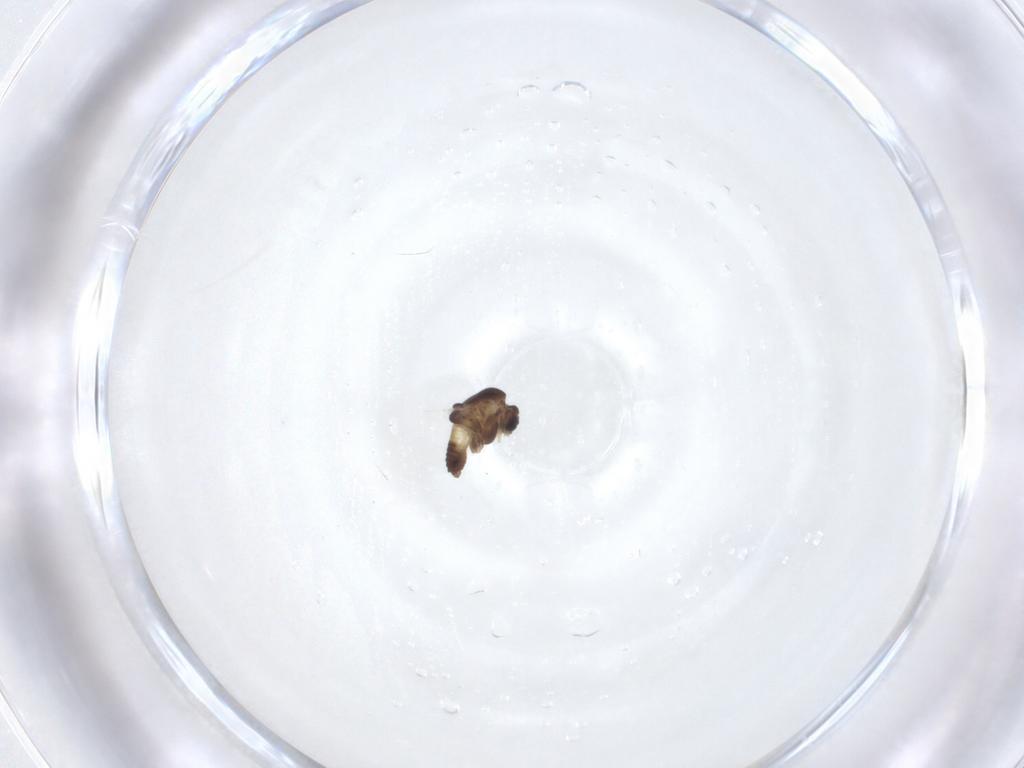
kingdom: Animalia
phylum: Arthropoda
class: Insecta
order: Diptera
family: Chironomidae
